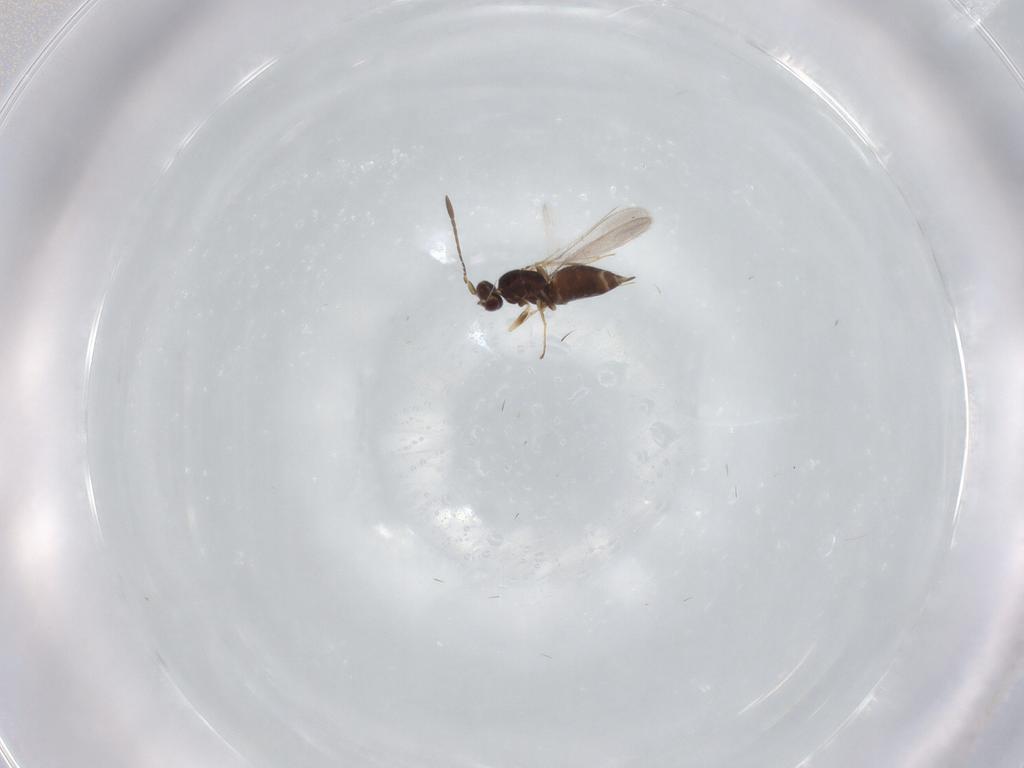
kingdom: Animalia
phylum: Arthropoda
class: Insecta
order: Hymenoptera
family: Mymaridae
